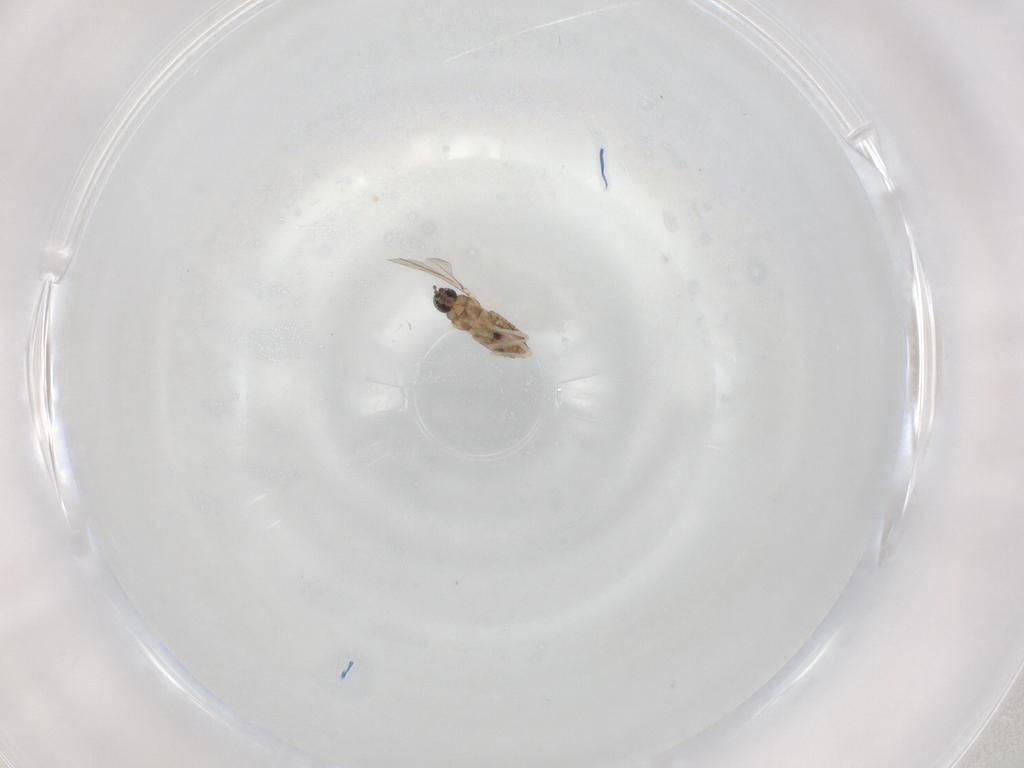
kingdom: Animalia
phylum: Arthropoda
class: Insecta
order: Diptera
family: Cecidomyiidae
